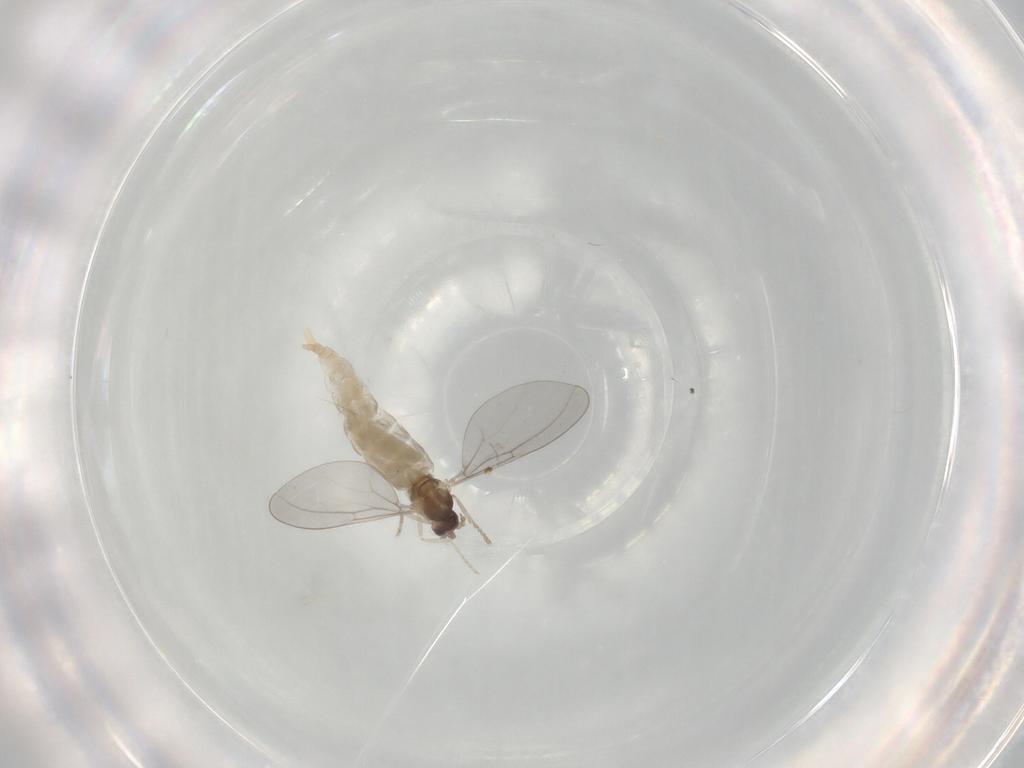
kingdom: Animalia
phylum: Arthropoda
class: Insecta
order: Diptera
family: Cecidomyiidae
